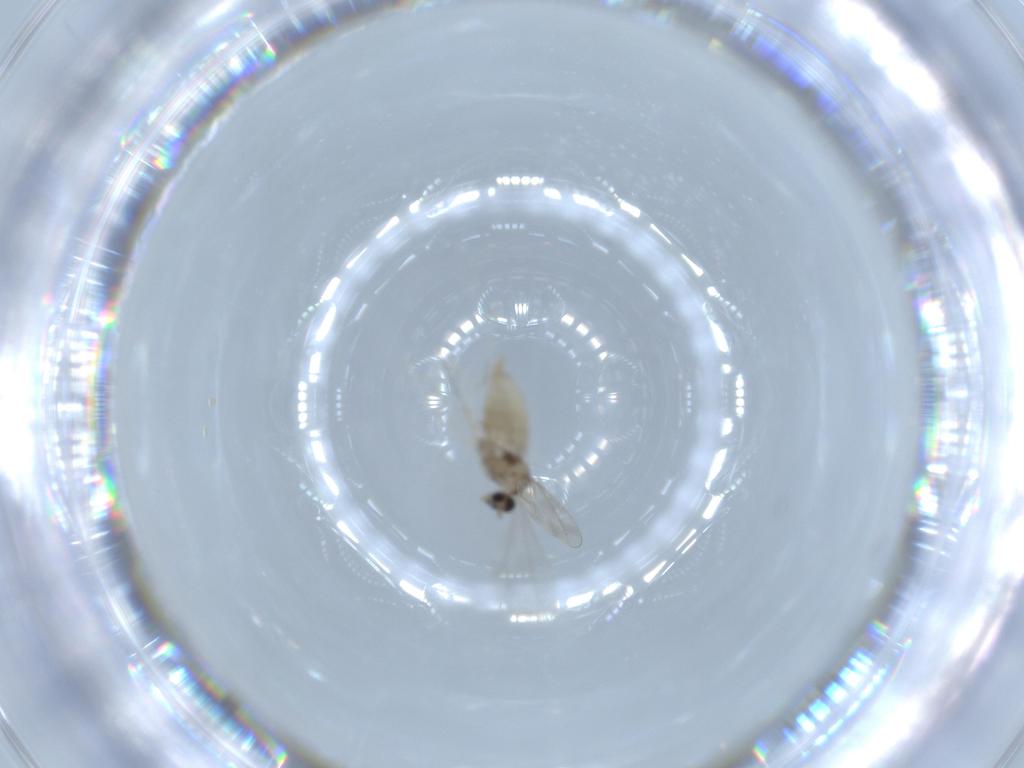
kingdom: Animalia
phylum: Arthropoda
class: Insecta
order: Diptera
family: Cecidomyiidae
